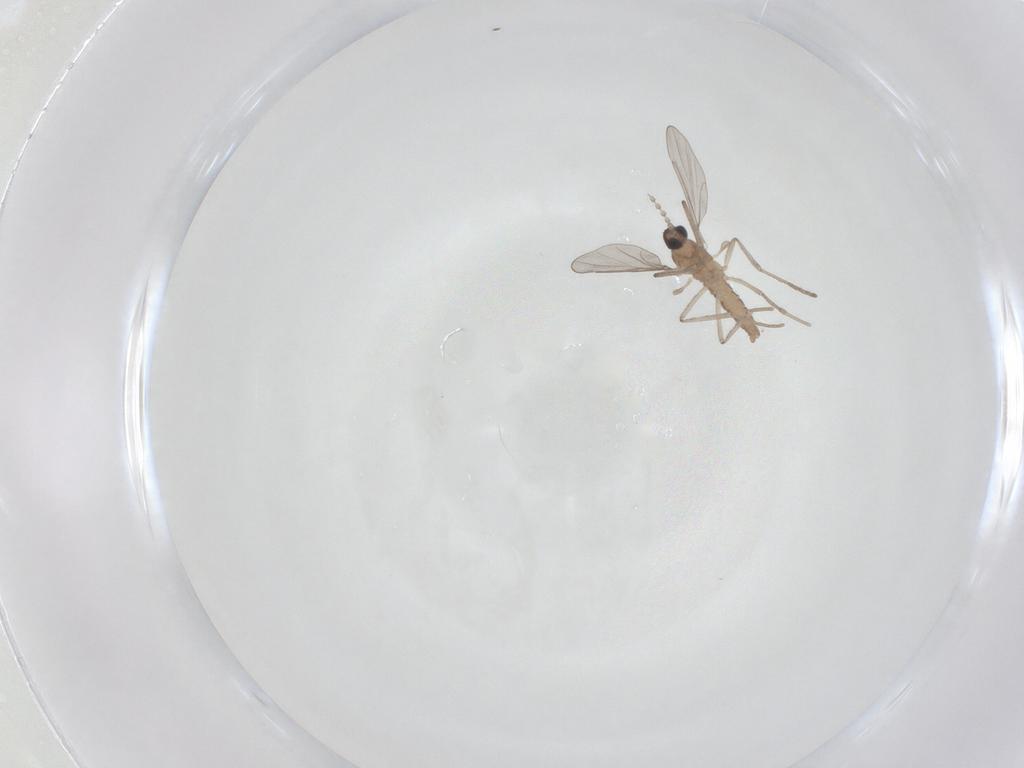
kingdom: Animalia
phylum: Arthropoda
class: Insecta
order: Diptera
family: Cecidomyiidae
